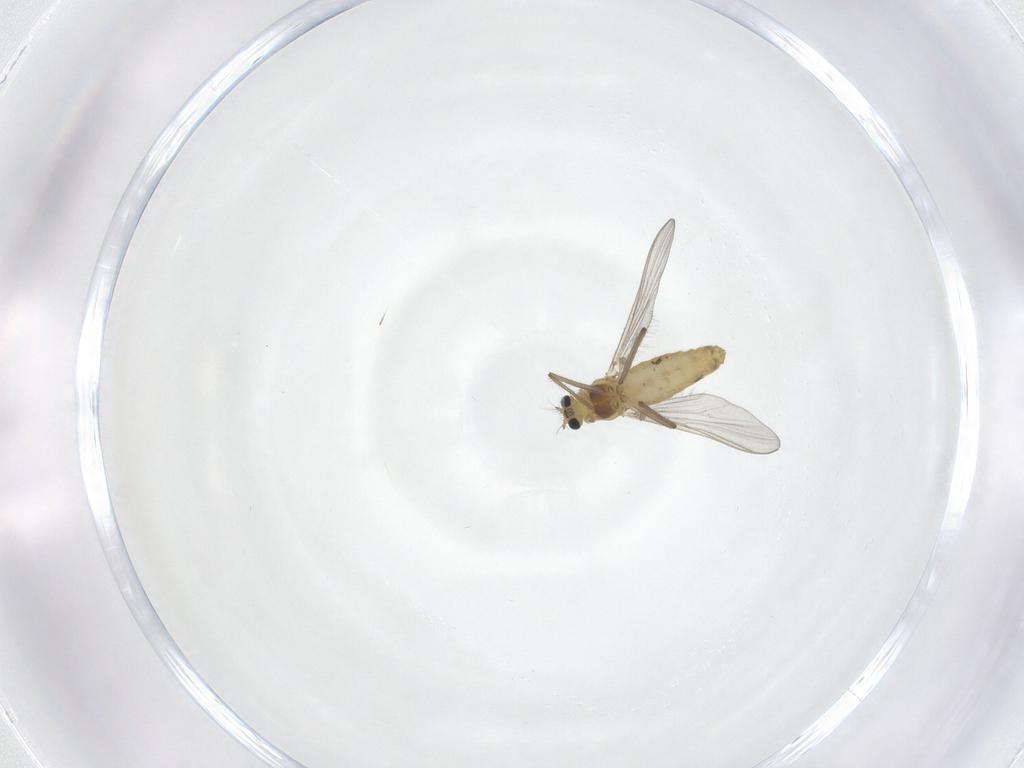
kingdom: Animalia
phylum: Arthropoda
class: Insecta
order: Diptera
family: Chironomidae
